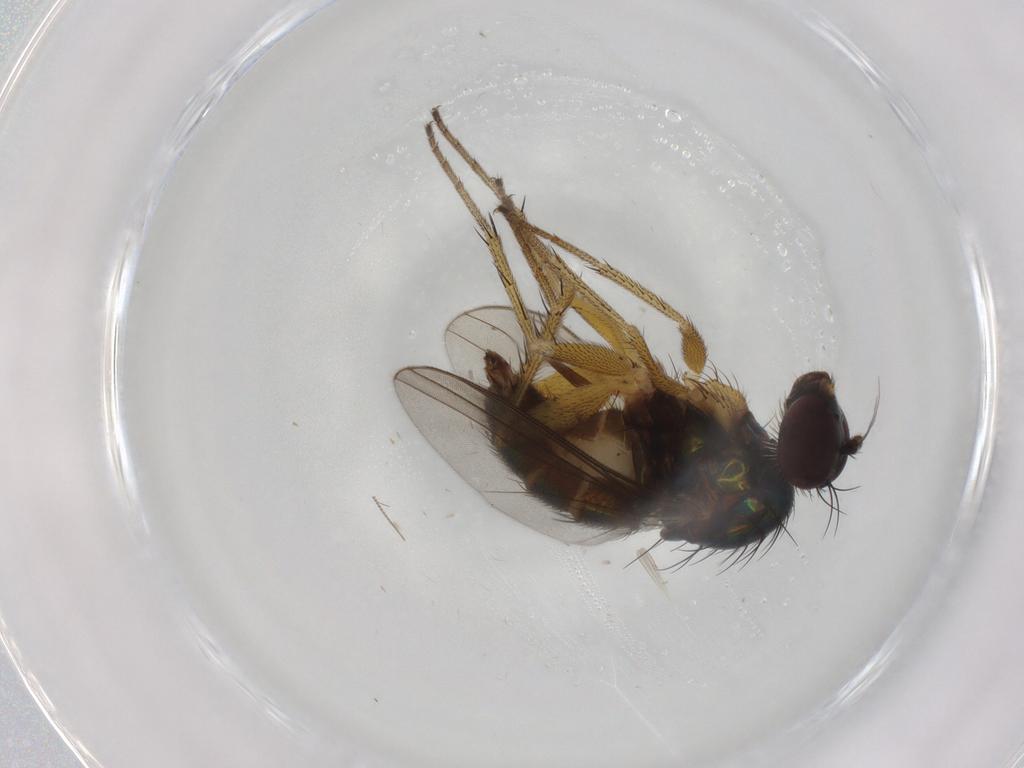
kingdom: Animalia
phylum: Arthropoda
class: Insecta
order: Diptera
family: Dolichopodidae
